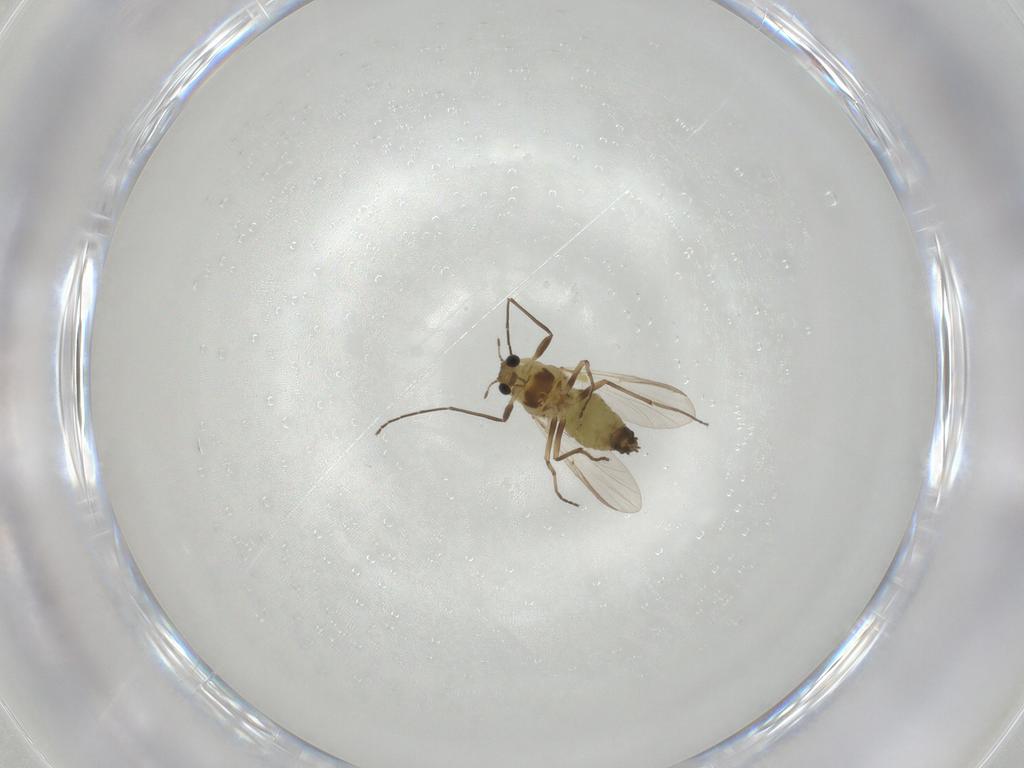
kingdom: Animalia
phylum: Arthropoda
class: Insecta
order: Diptera
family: Chironomidae
